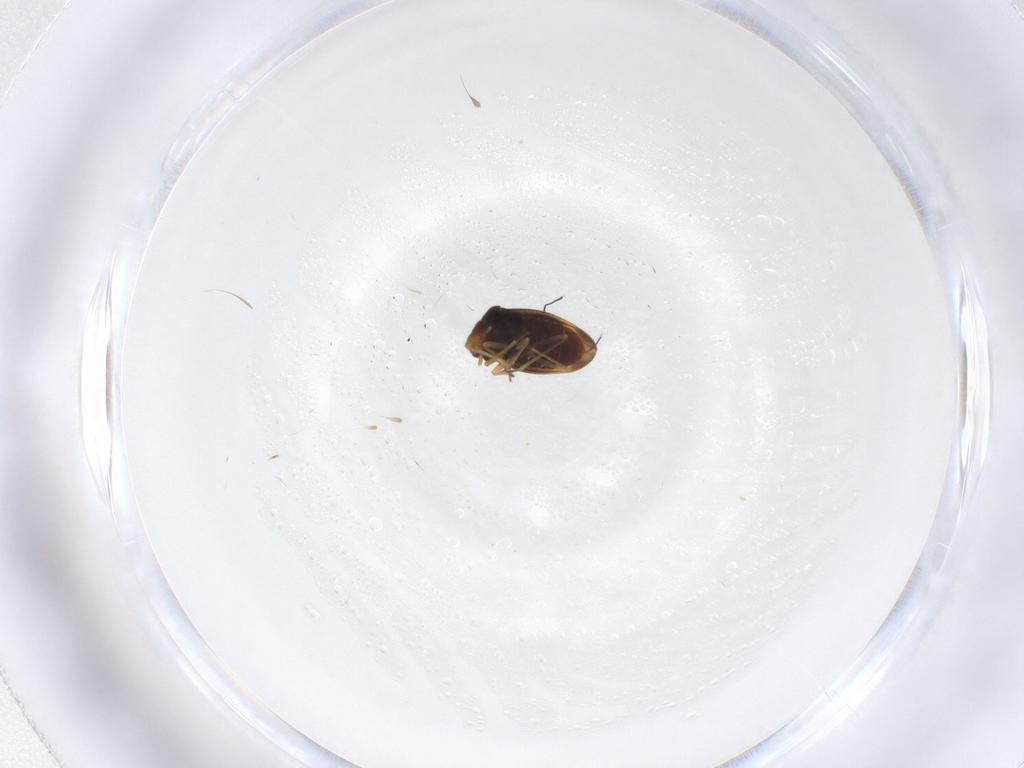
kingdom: Animalia
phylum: Arthropoda
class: Insecta
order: Hemiptera
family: Schizopteridae
